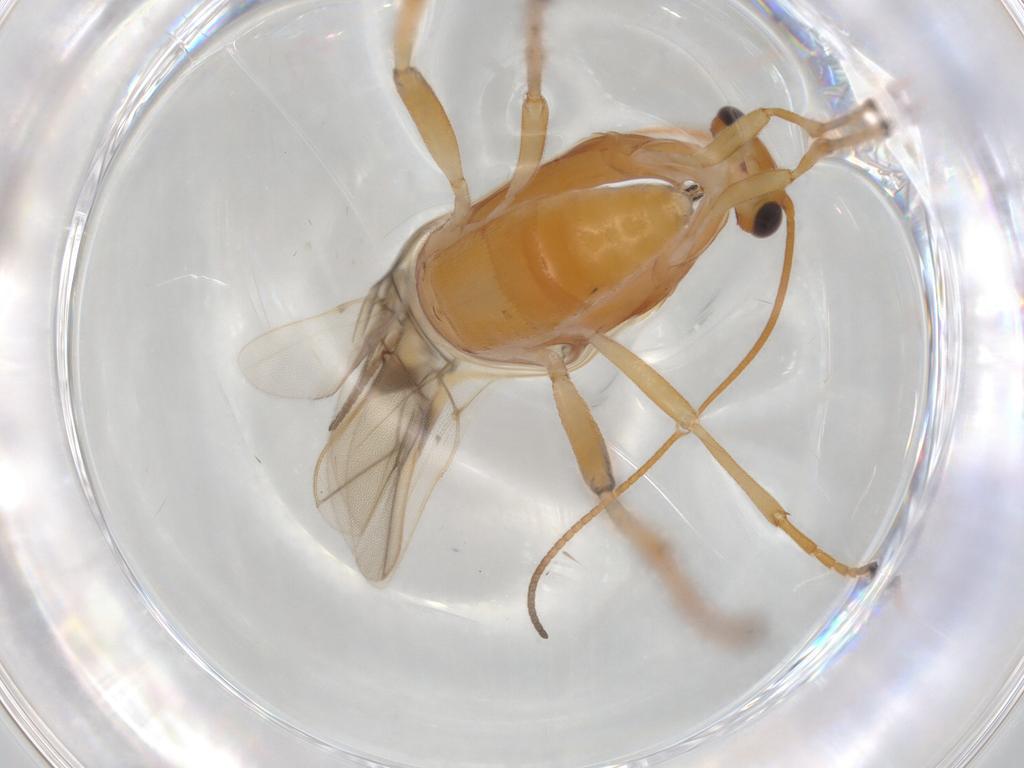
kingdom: Animalia
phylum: Arthropoda
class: Insecta
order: Hymenoptera
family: Formicidae
